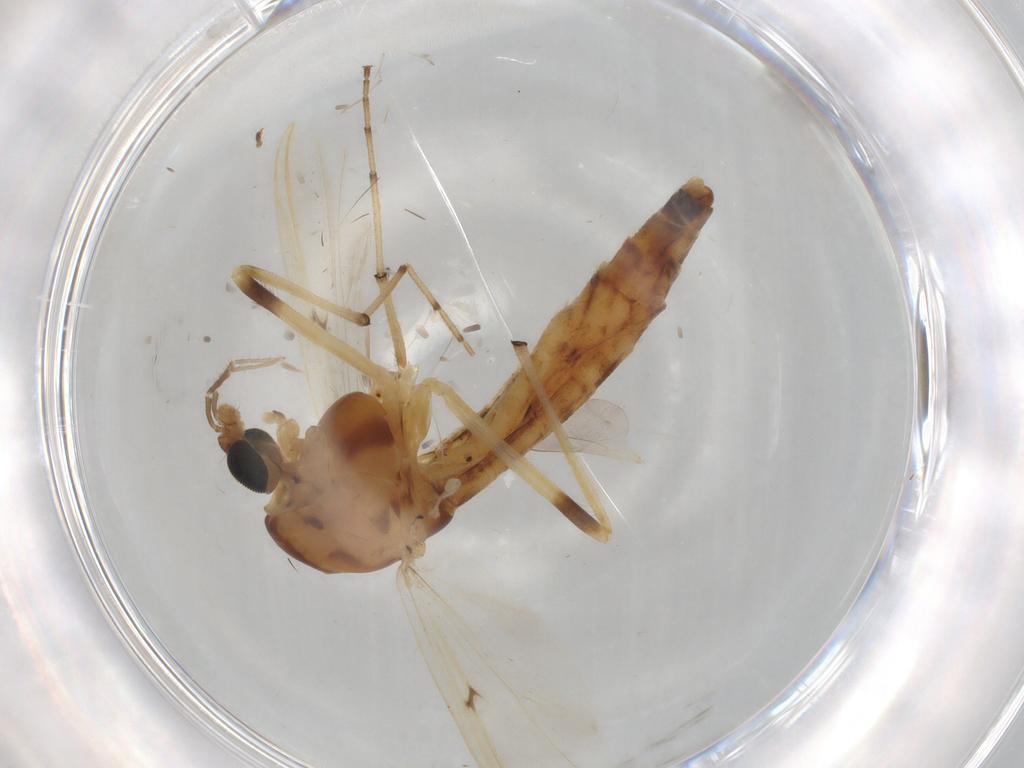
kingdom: Animalia
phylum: Arthropoda
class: Insecta
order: Diptera
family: Chironomidae
